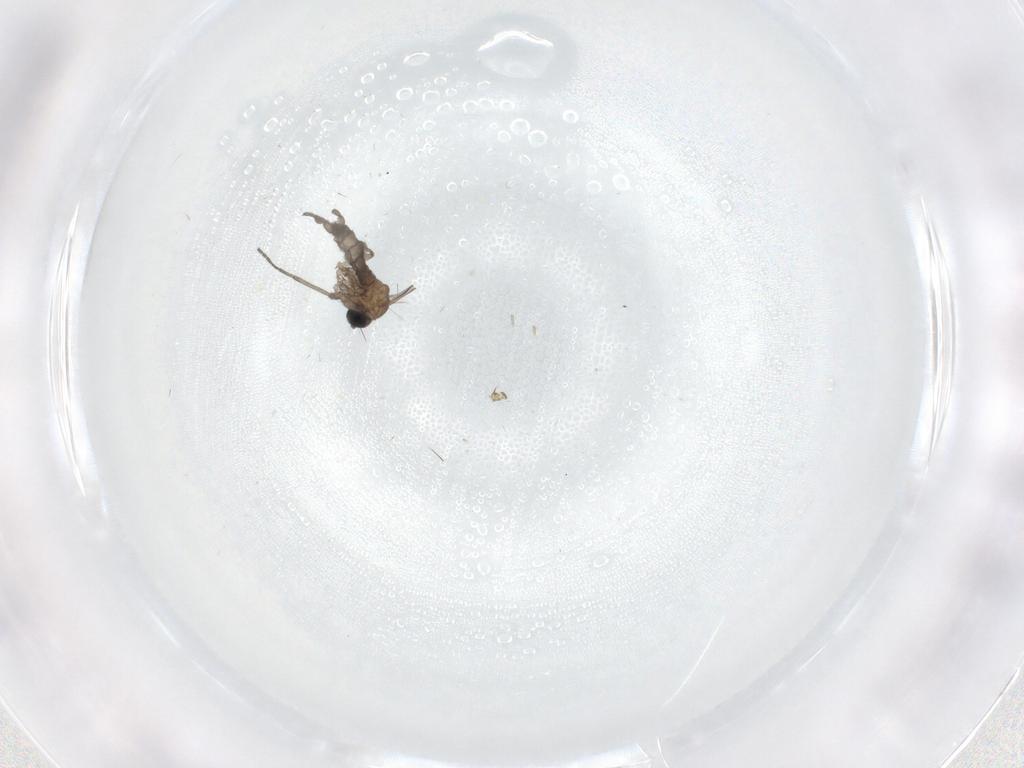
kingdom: Animalia
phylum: Arthropoda
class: Insecta
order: Diptera
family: Sciaridae
